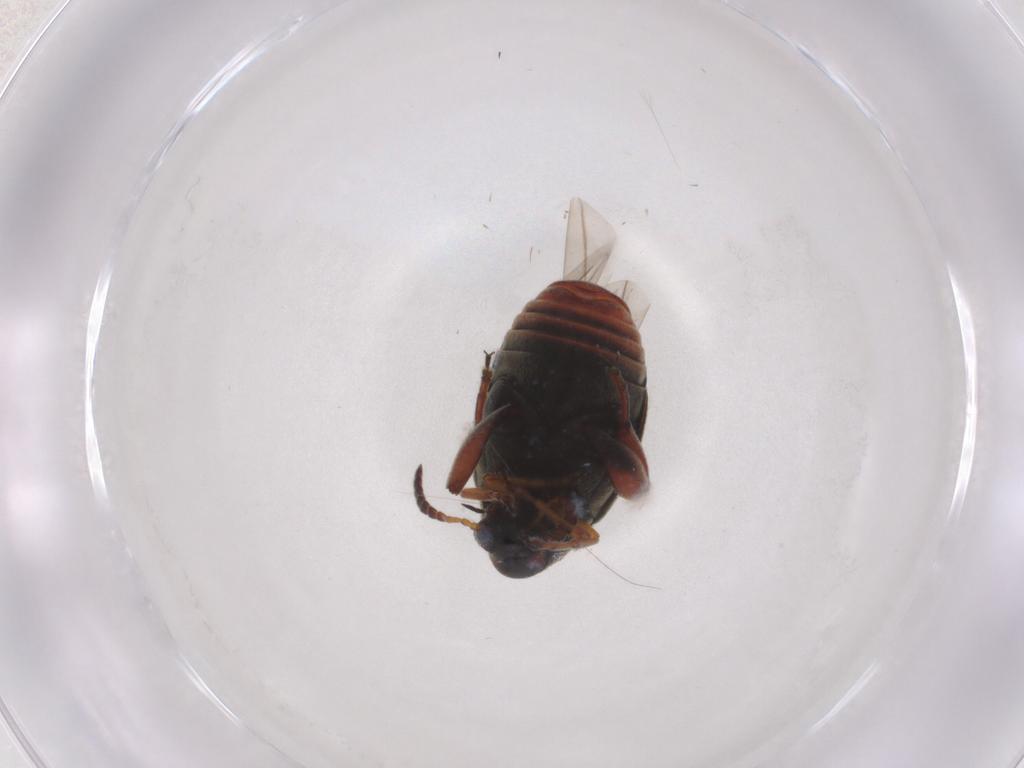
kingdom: Animalia
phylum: Arthropoda
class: Insecta
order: Coleoptera
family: Chrysomelidae
